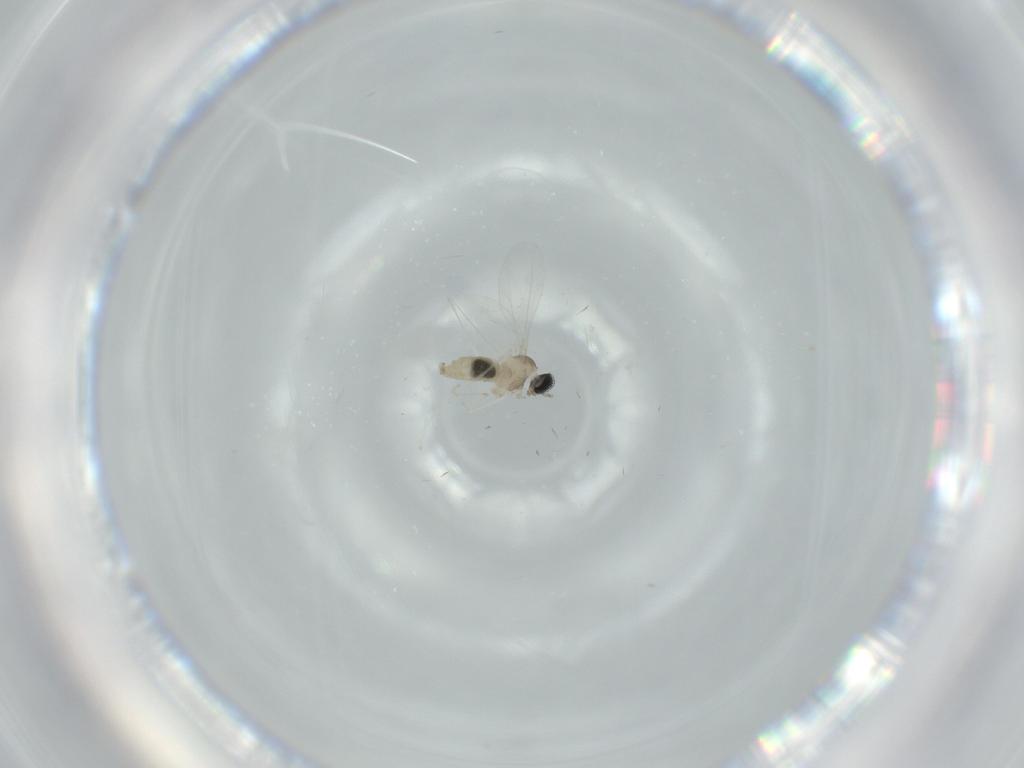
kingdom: Animalia
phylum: Arthropoda
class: Insecta
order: Diptera
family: Cecidomyiidae
